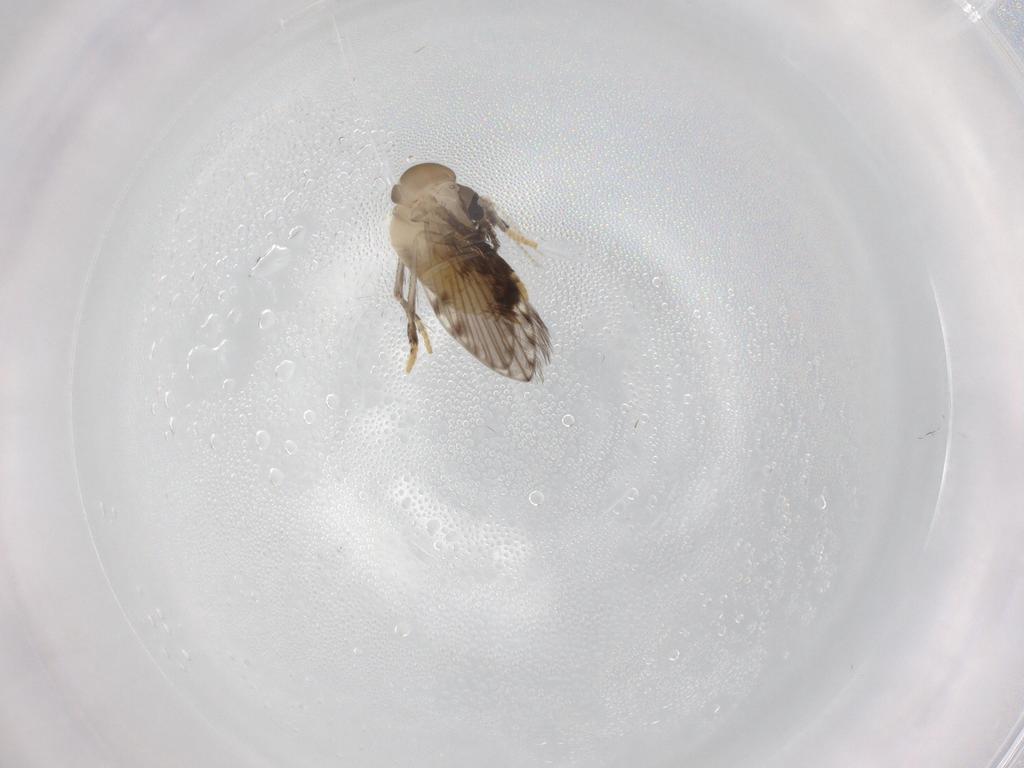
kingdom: Animalia
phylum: Arthropoda
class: Insecta
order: Diptera
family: Psychodidae
